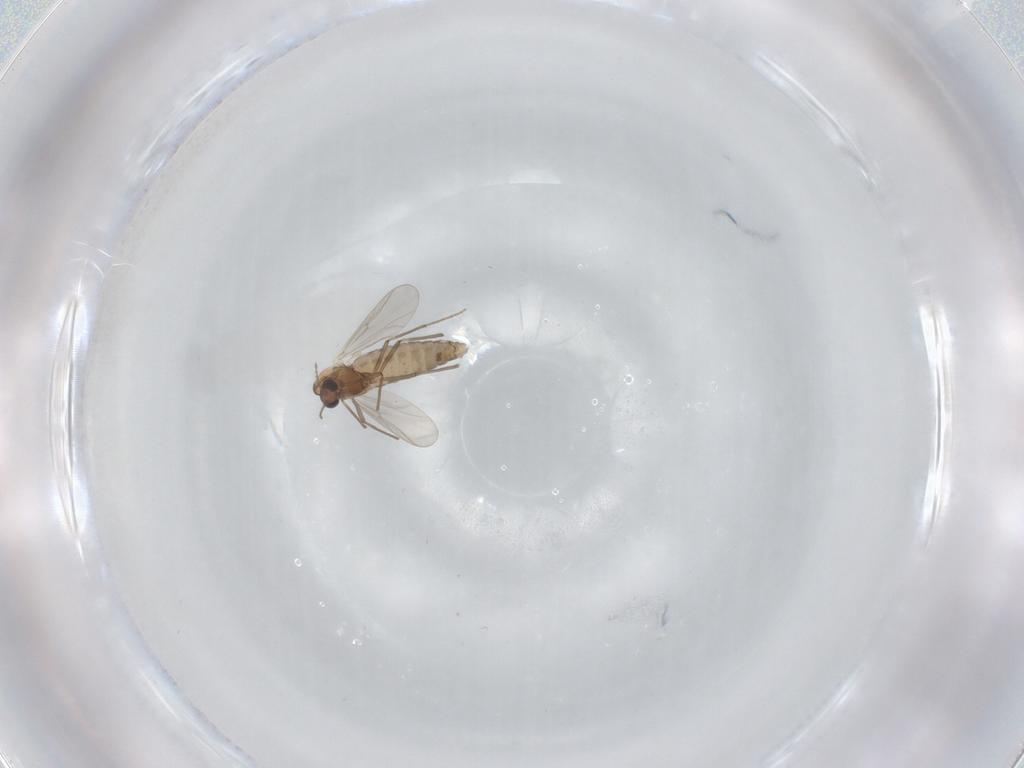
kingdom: Animalia
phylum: Arthropoda
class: Insecta
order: Diptera
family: Chironomidae
